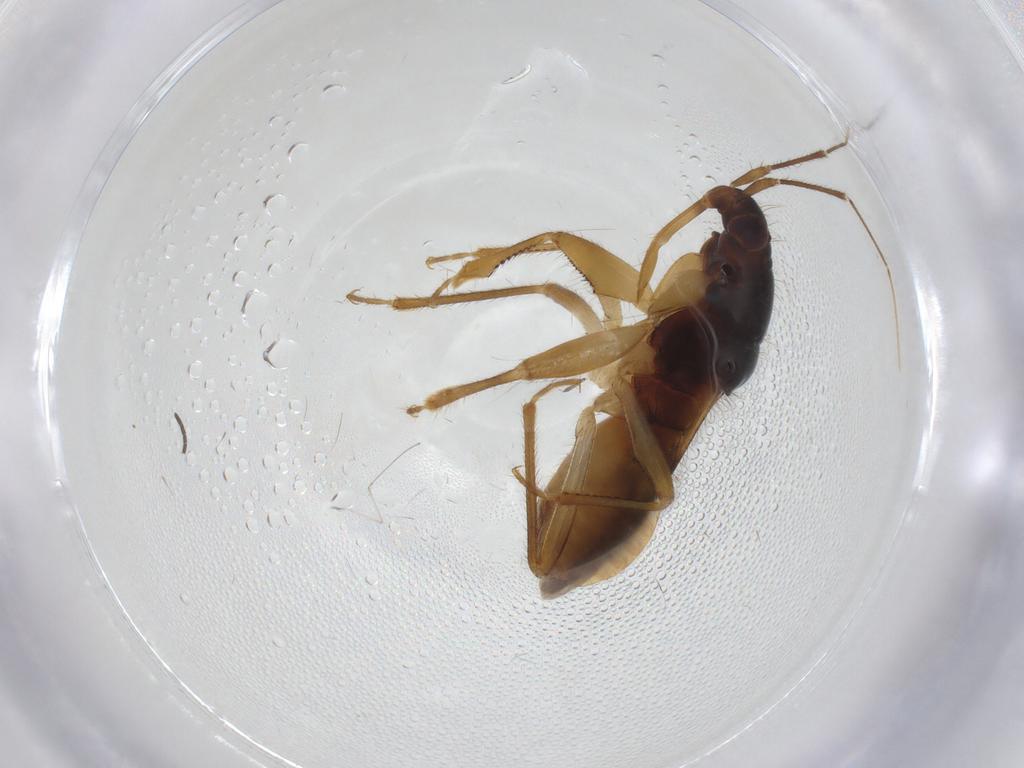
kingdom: Animalia
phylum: Arthropoda
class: Insecta
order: Hemiptera
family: Nabidae
